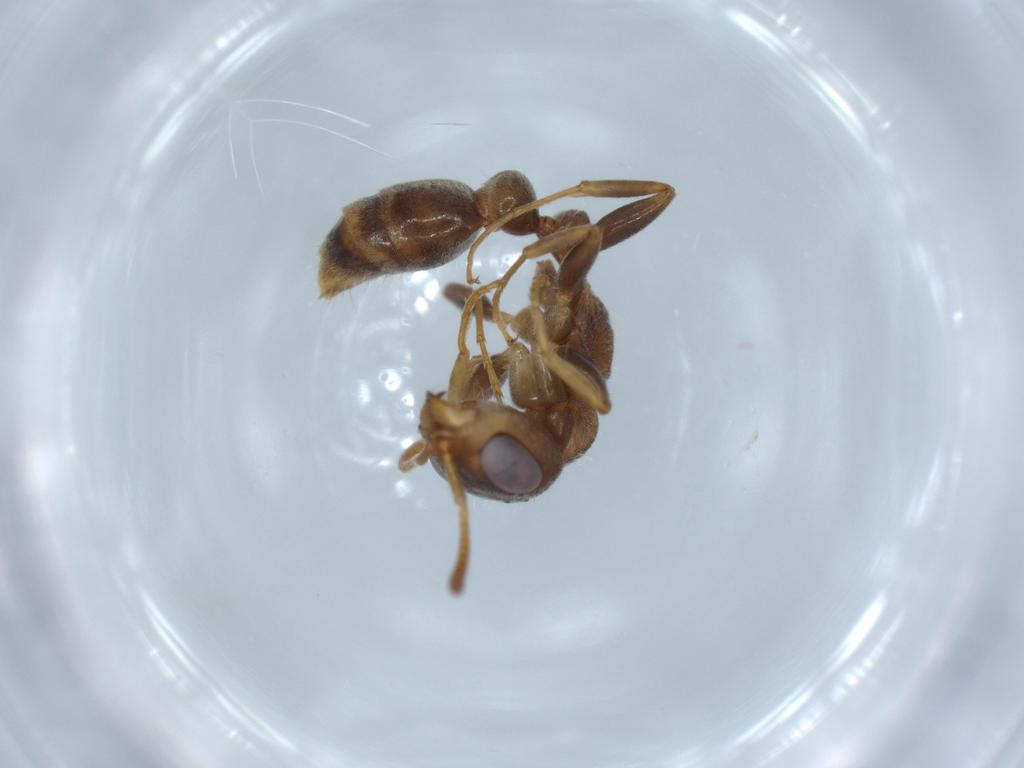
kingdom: Animalia
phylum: Arthropoda
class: Insecta
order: Hymenoptera
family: Formicidae
